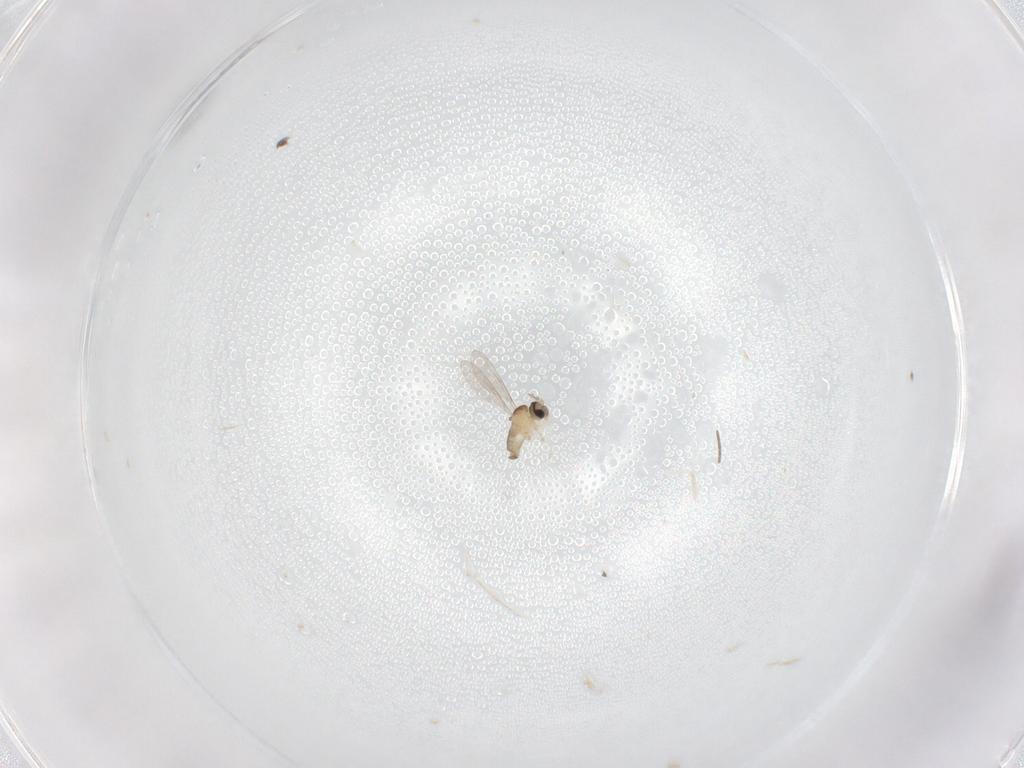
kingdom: Animalia
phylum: Arthropoda
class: Insecta
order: Diptera
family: Cecidomyiidae
